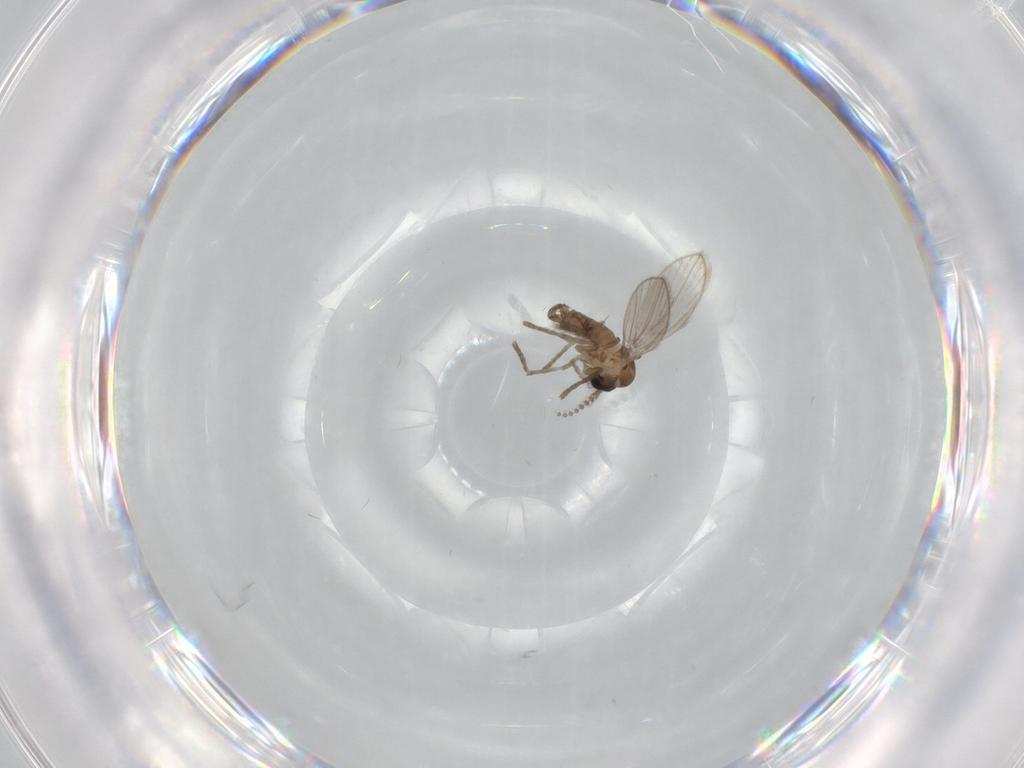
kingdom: Animalia
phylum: Arthropoda
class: Insecta
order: Diptera
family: Psychodidae
